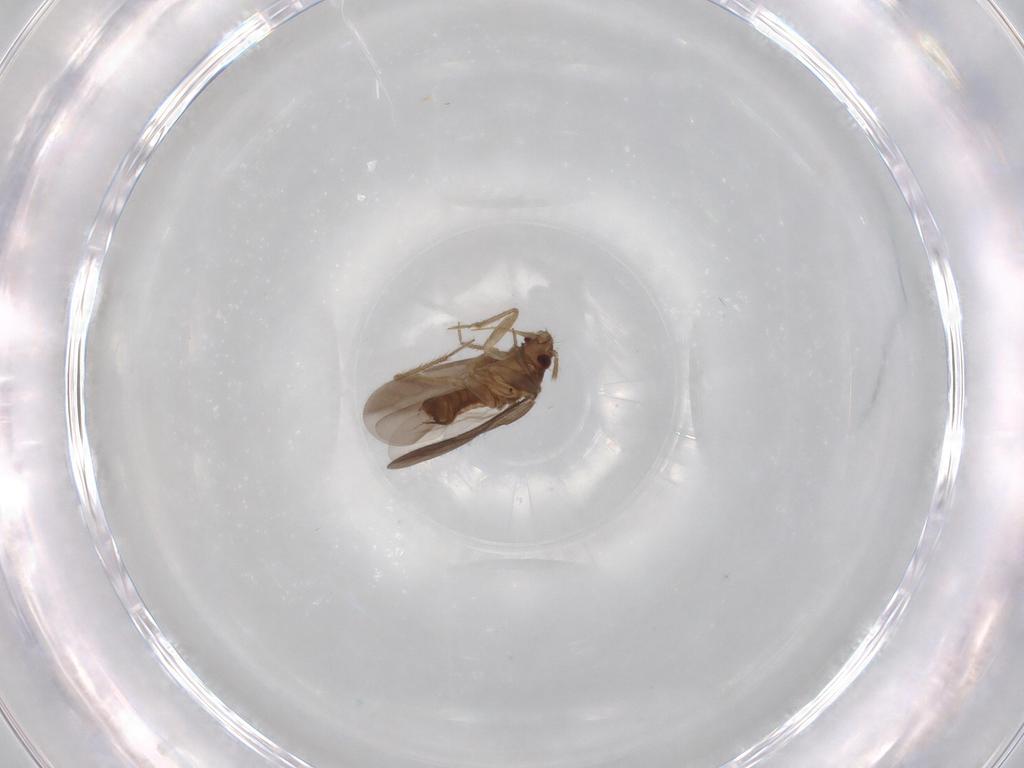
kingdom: Animalia
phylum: Arthropoda
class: Insecta
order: Hemiptera
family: Ceratocombidae
